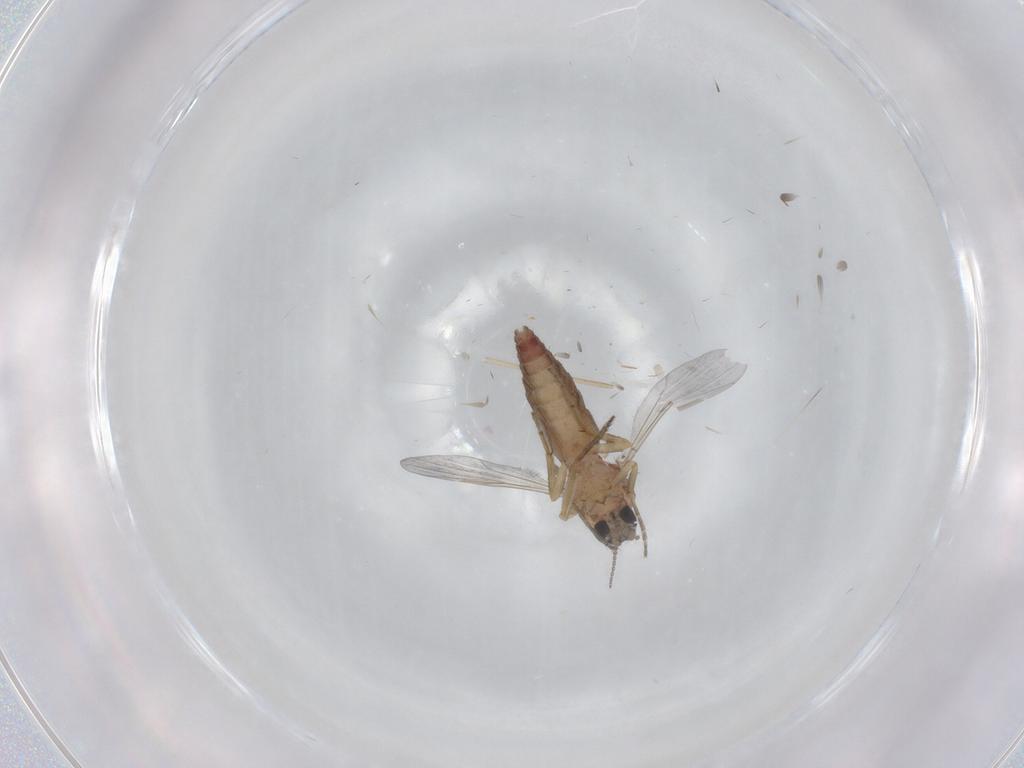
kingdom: Animalia
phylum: Arthropoda
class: Insecta
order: Diptera
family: Ceratopogonidae
